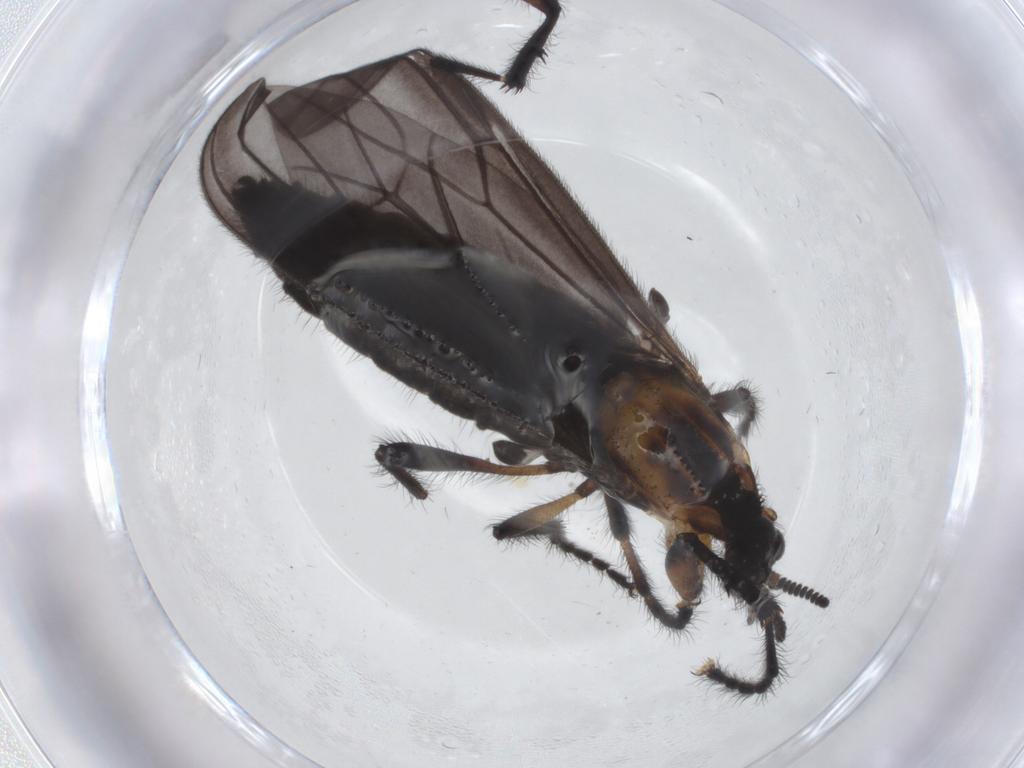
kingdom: Animalia
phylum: Arthropoda
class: Insecta
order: Diptera
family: Bibionidae
